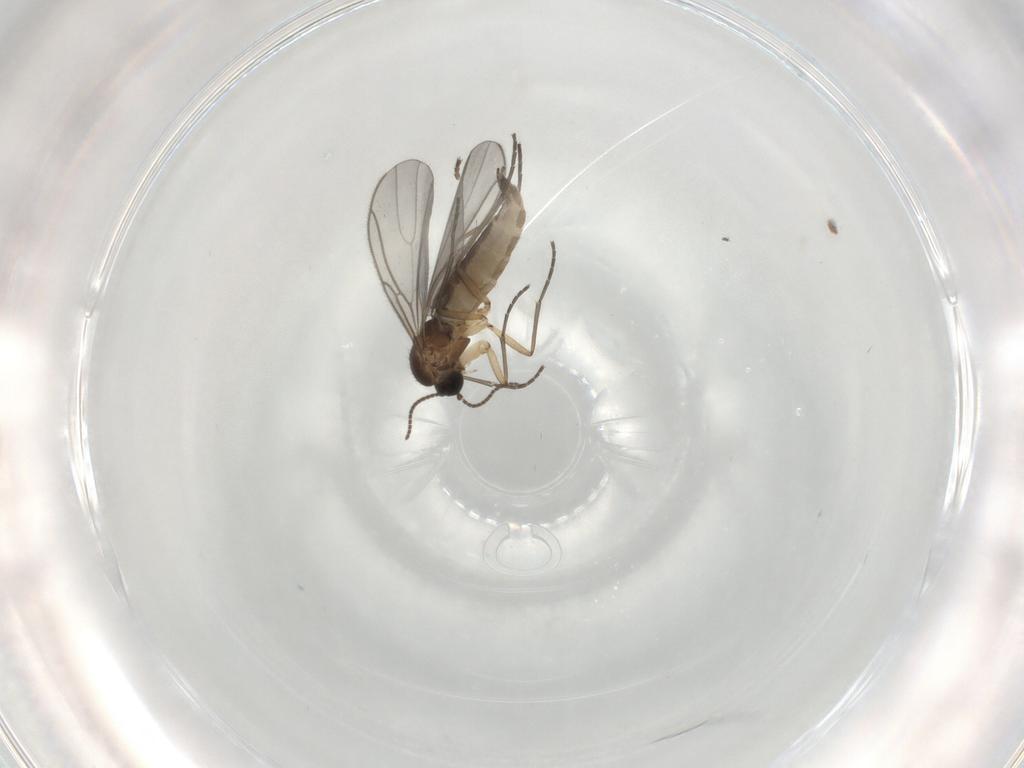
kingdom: Animalia
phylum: Arthropoda
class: Insecta
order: Diptera
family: Sciaridae
